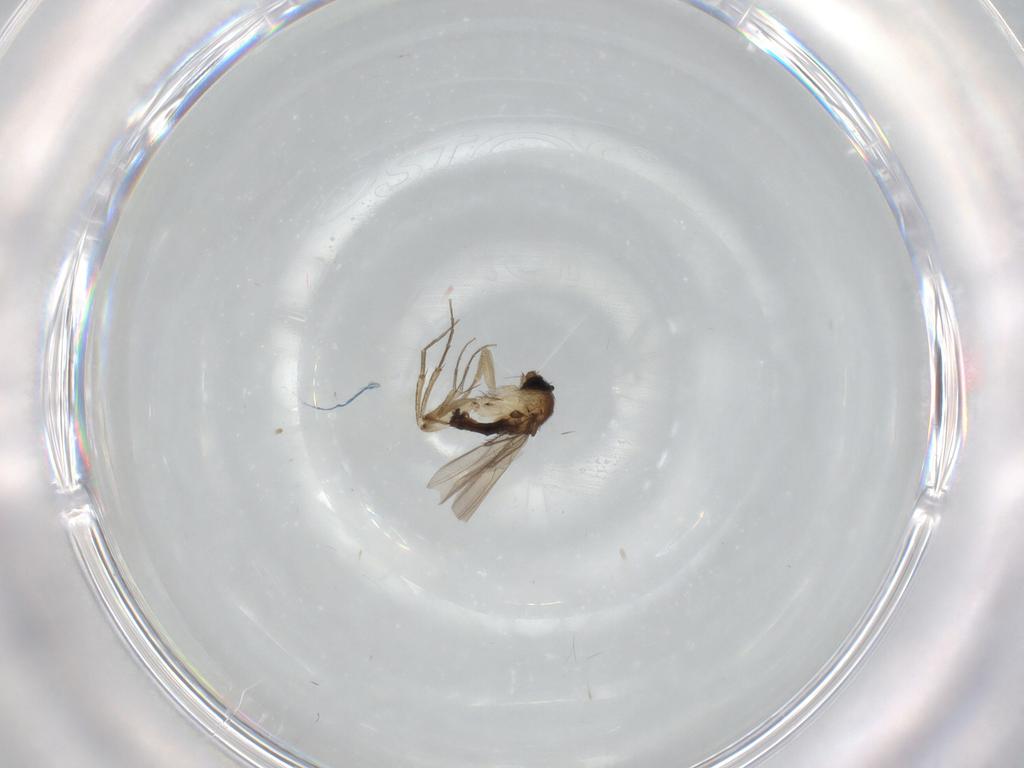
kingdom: Animalia
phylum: Arthropoda
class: Insecta
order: Diptera
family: Phoridae
